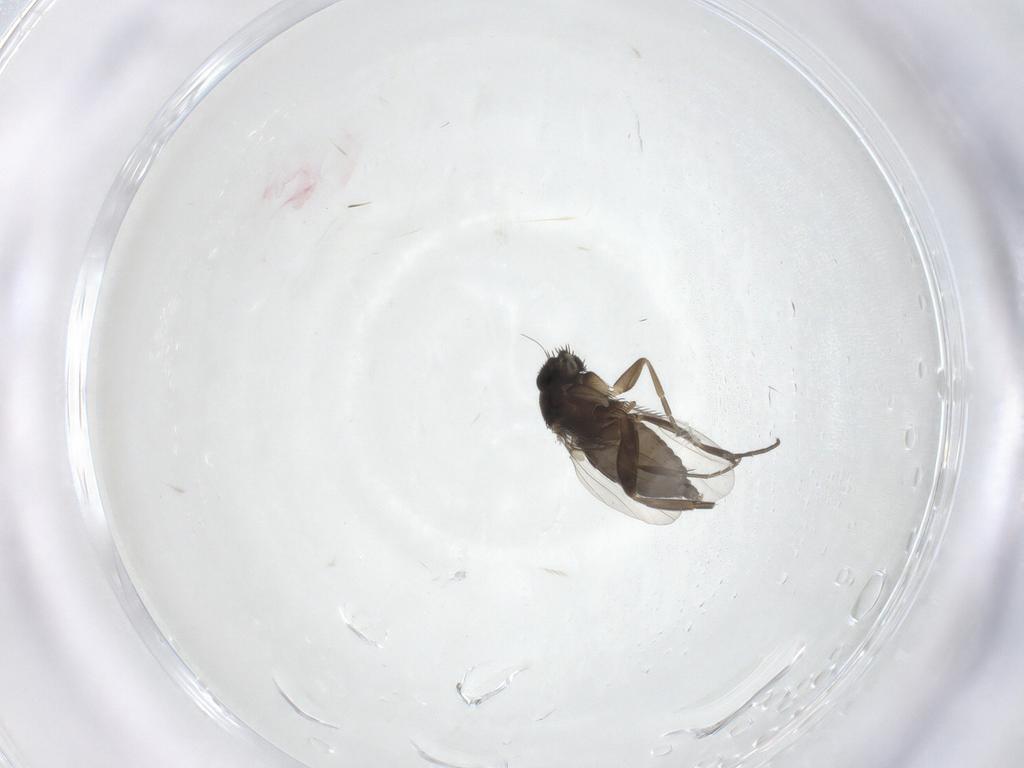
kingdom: Animalia
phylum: Arthropoda
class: Insecta
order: Diptera
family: Phoridae
